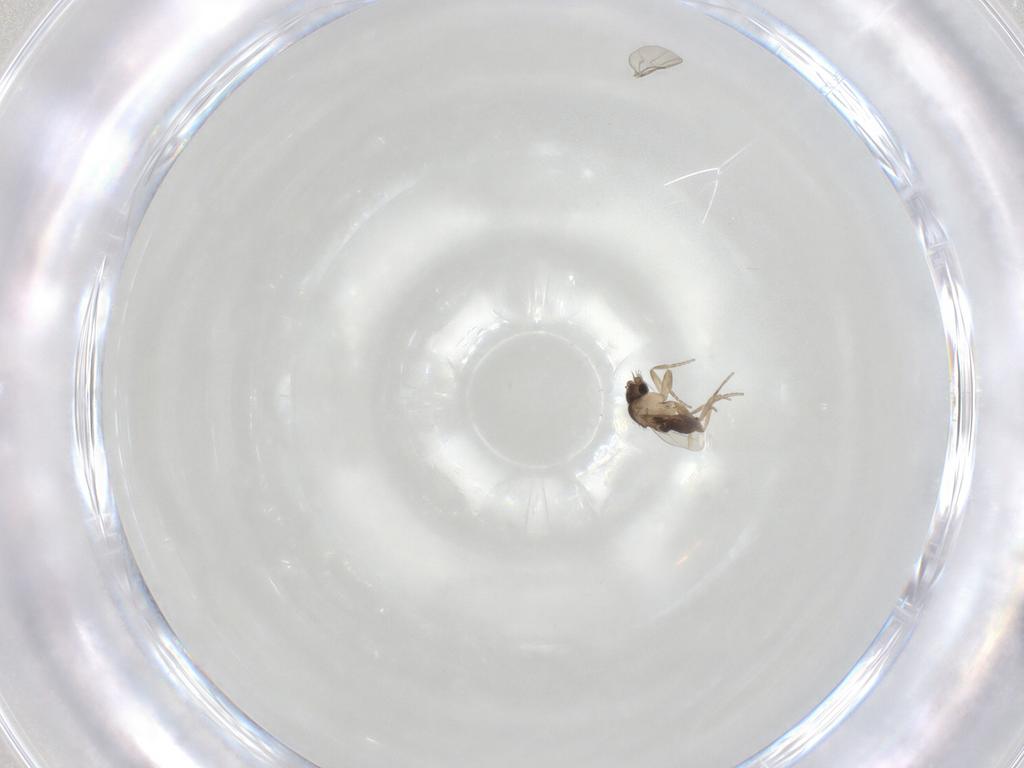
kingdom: Animalia
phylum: Arthropoda
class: Insecta
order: Diptera
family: Phoridae
